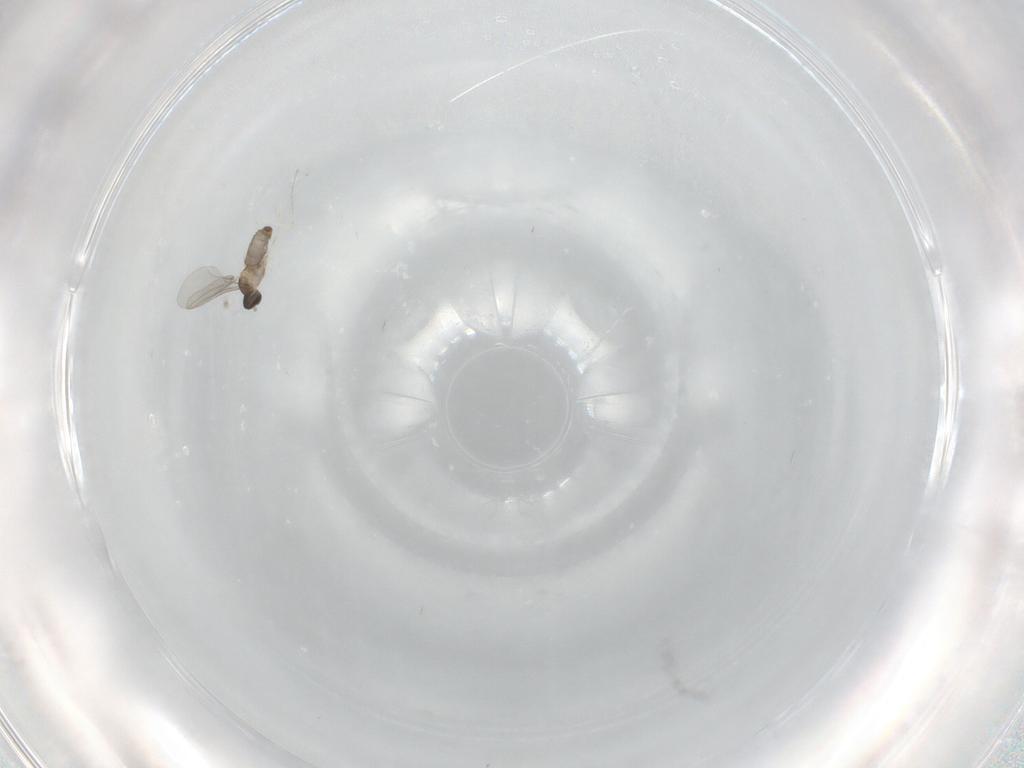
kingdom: Animalia
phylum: Arthropoda
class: Insecta
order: Diptera
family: Cecidomyiidae
